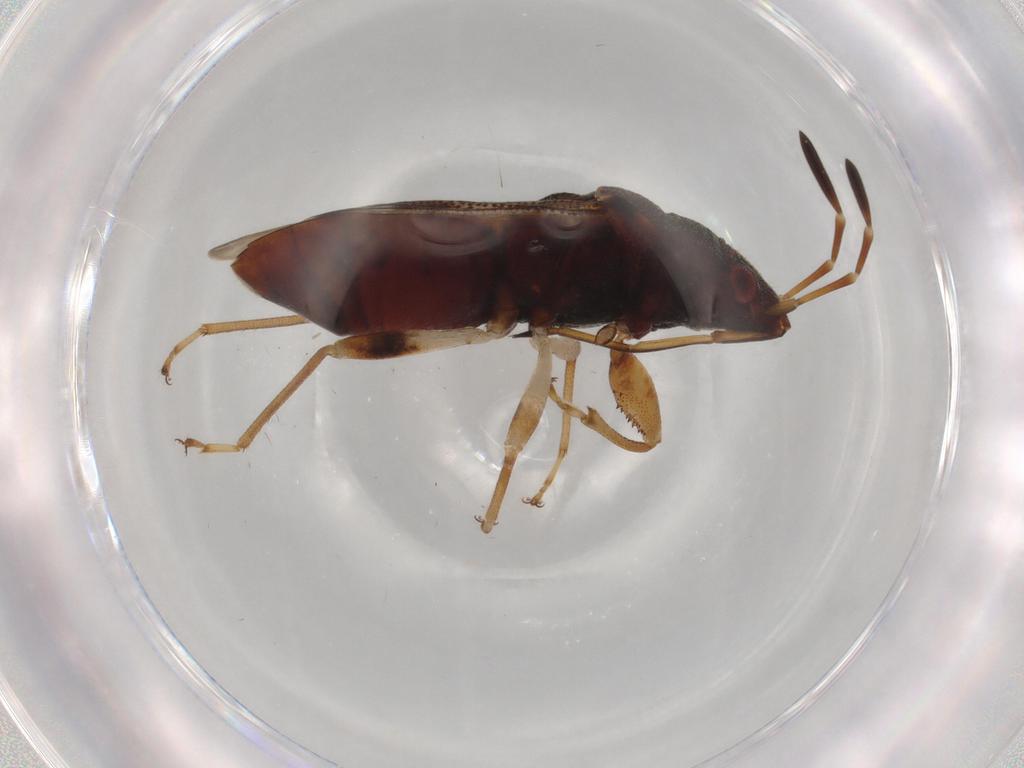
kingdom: Animalia
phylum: Arthropoda
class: Insecta
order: Hemiptera
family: Rhyparochromidae
